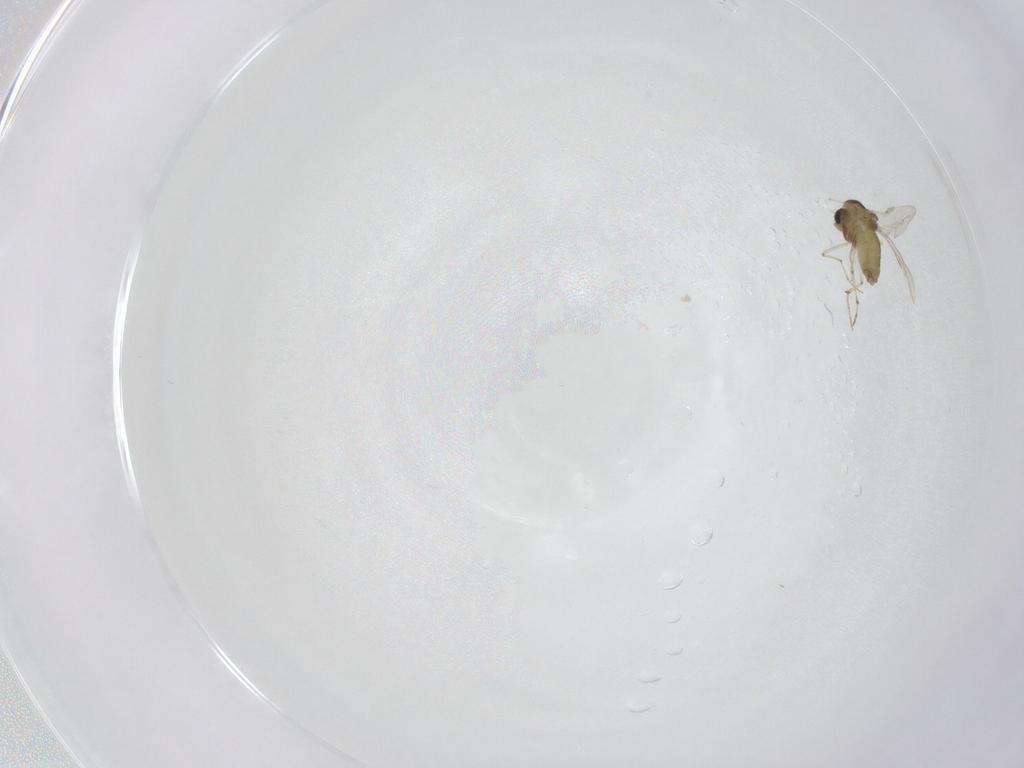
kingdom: Animalia
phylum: Arthropoda
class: Insecta
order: Diptera
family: Chironomidae
